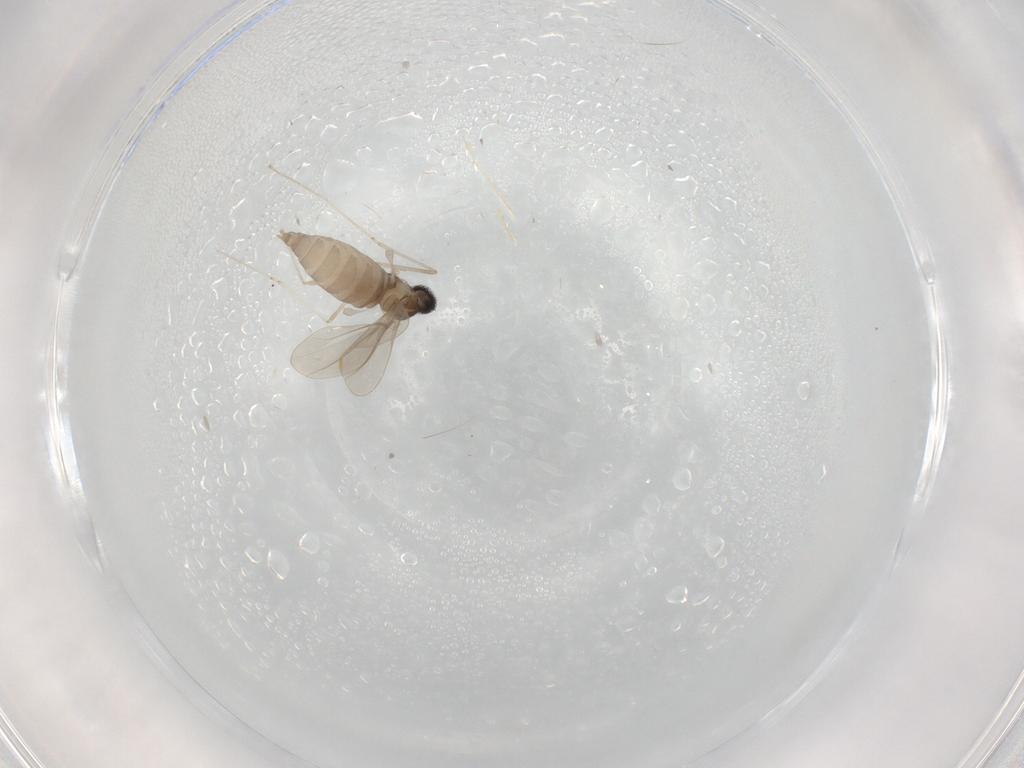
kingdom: Animalia
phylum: Arthropoda
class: Insecta
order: Diptera
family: Cecidomyiidae
